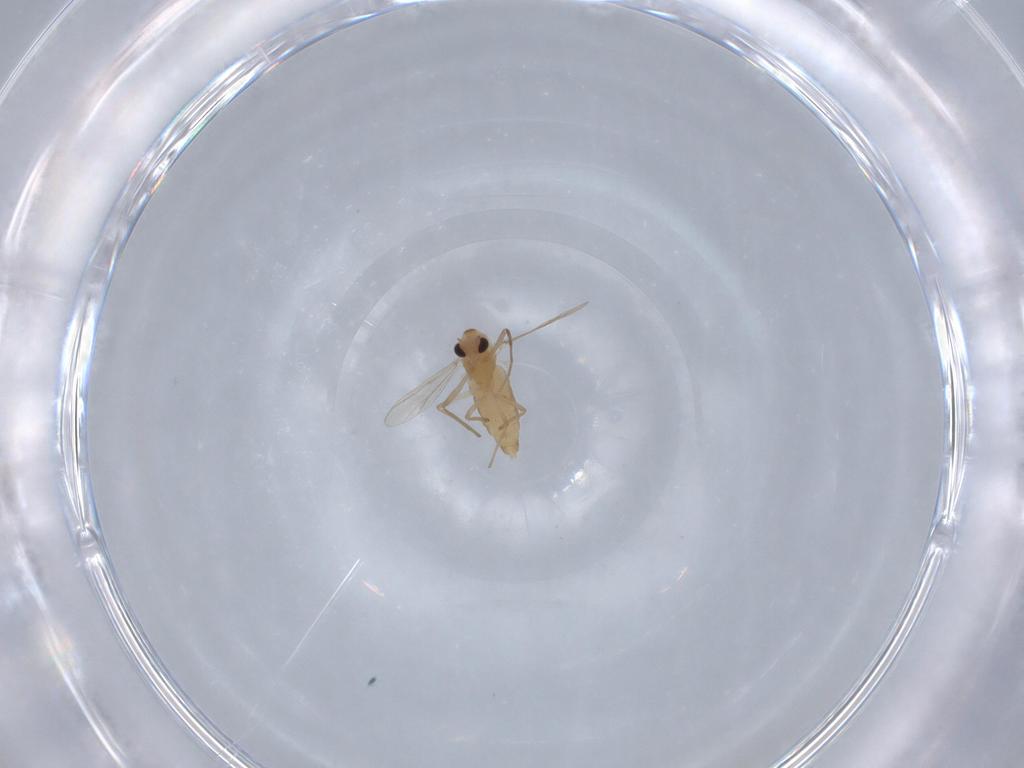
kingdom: Animalia
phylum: Arthropoda
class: Insecta
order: Diptera
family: Chironomidae
